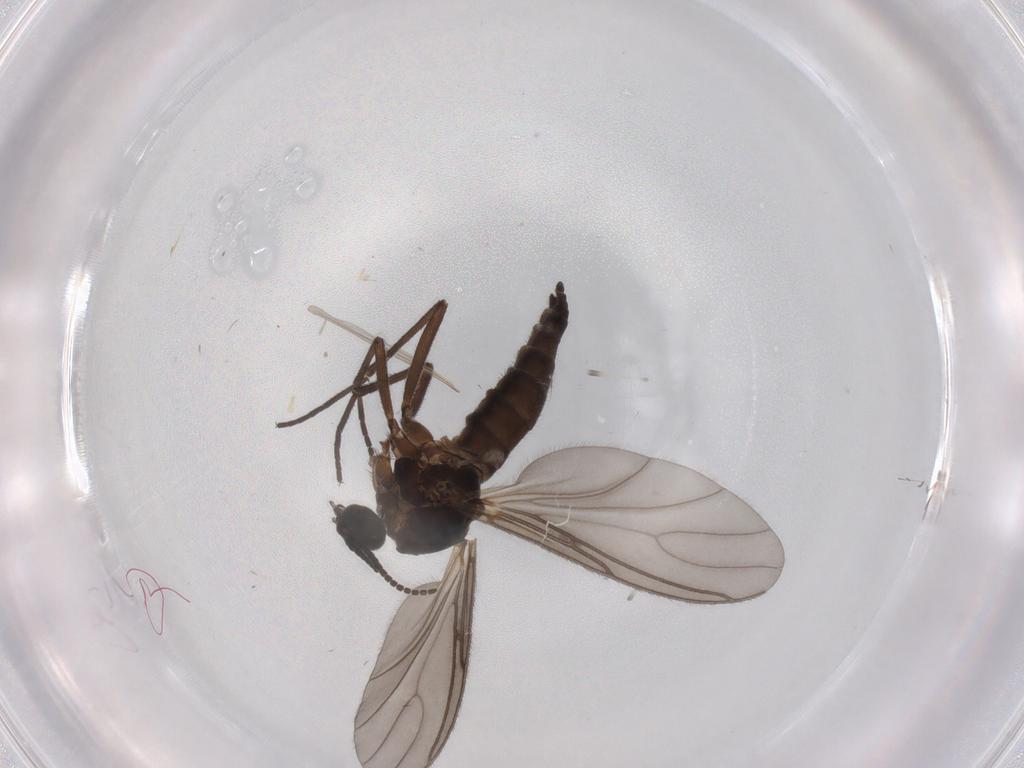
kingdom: Animalia
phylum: Arthropoda
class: Insecta
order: Diptera
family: Sciaridae
